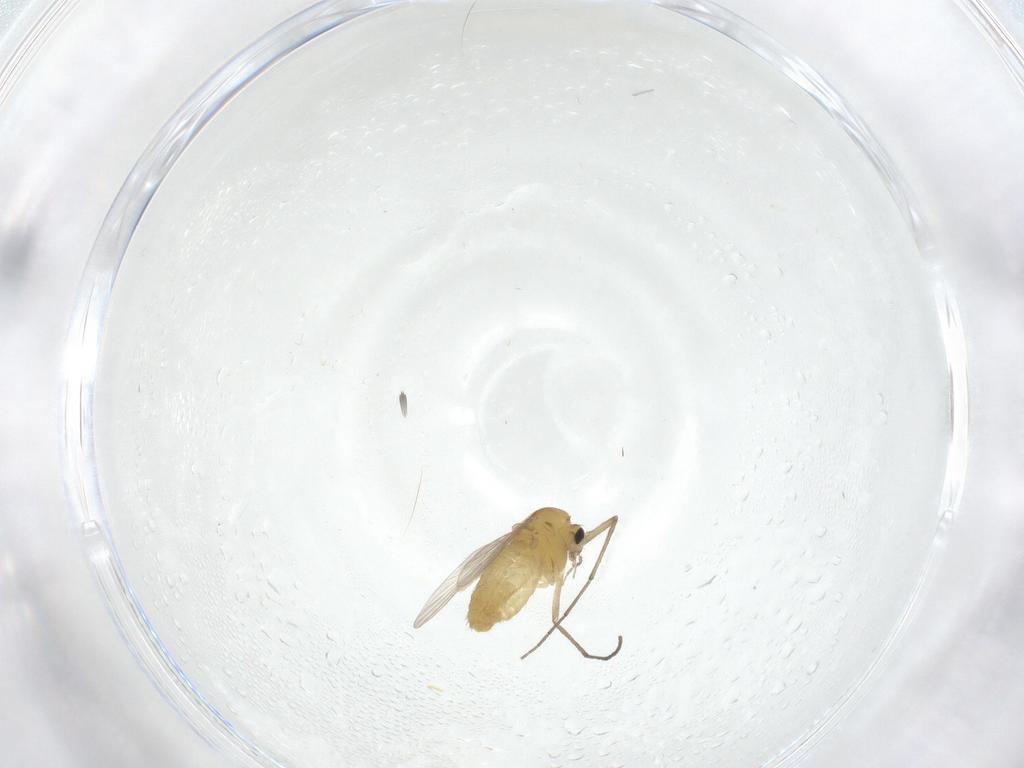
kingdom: Animalia
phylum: Arthropoda
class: Insecta
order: Diptera
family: Chironomidae
